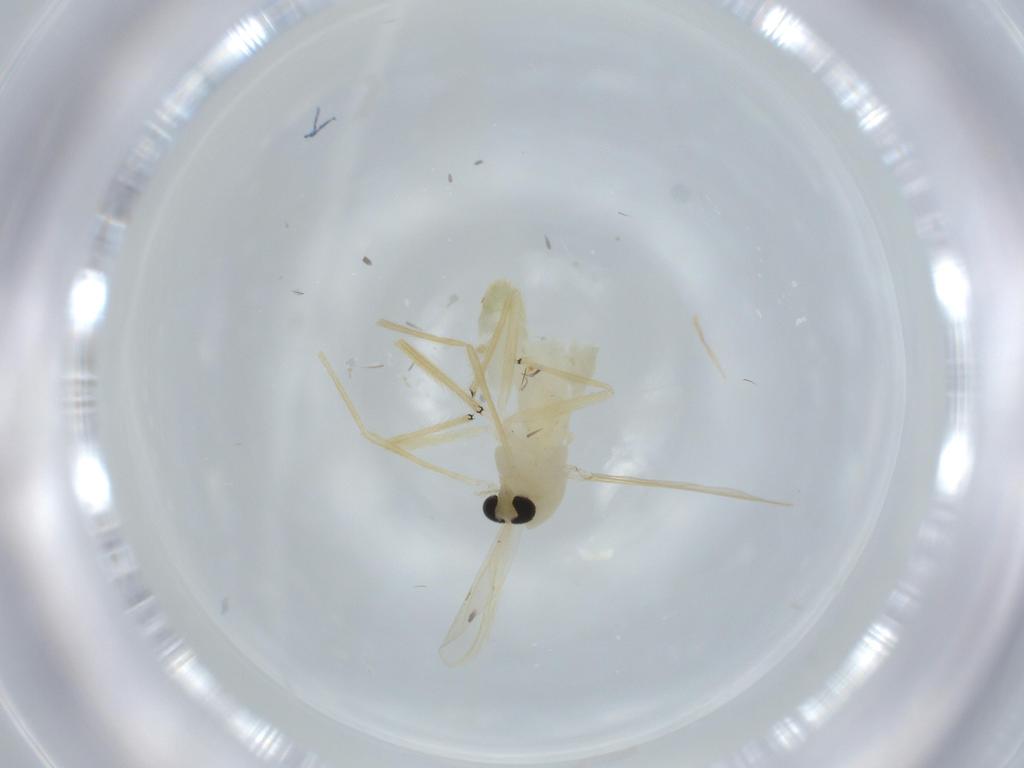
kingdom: Animalia
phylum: Arthropoda
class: Insecta
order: Diptera
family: Chironomidae
